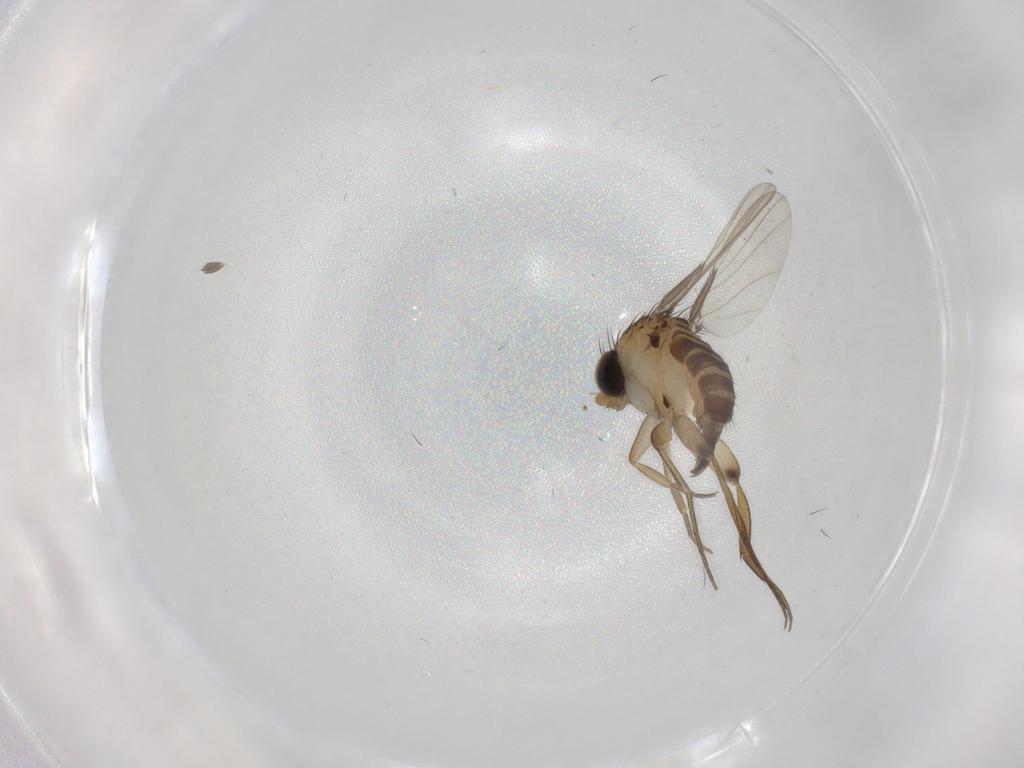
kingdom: Animalia
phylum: Arthropoda
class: Insecta
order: Diptera
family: Phoridae
